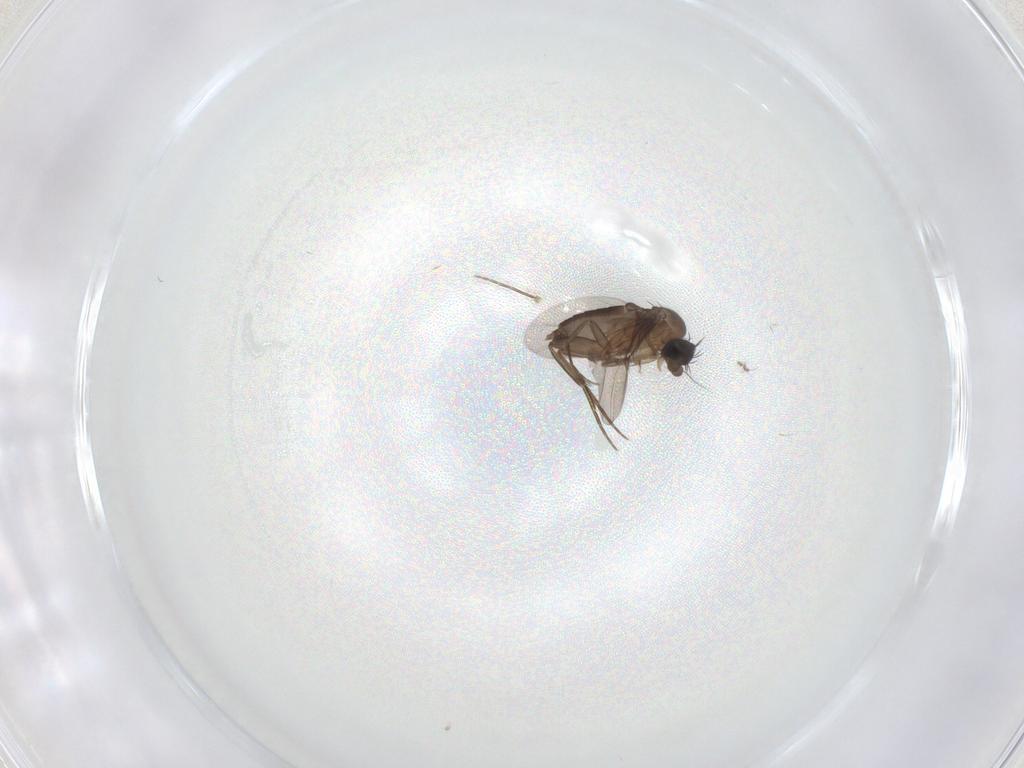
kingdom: Animalia
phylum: Arthropoda
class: Insecta
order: Diptera
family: Phoridae
